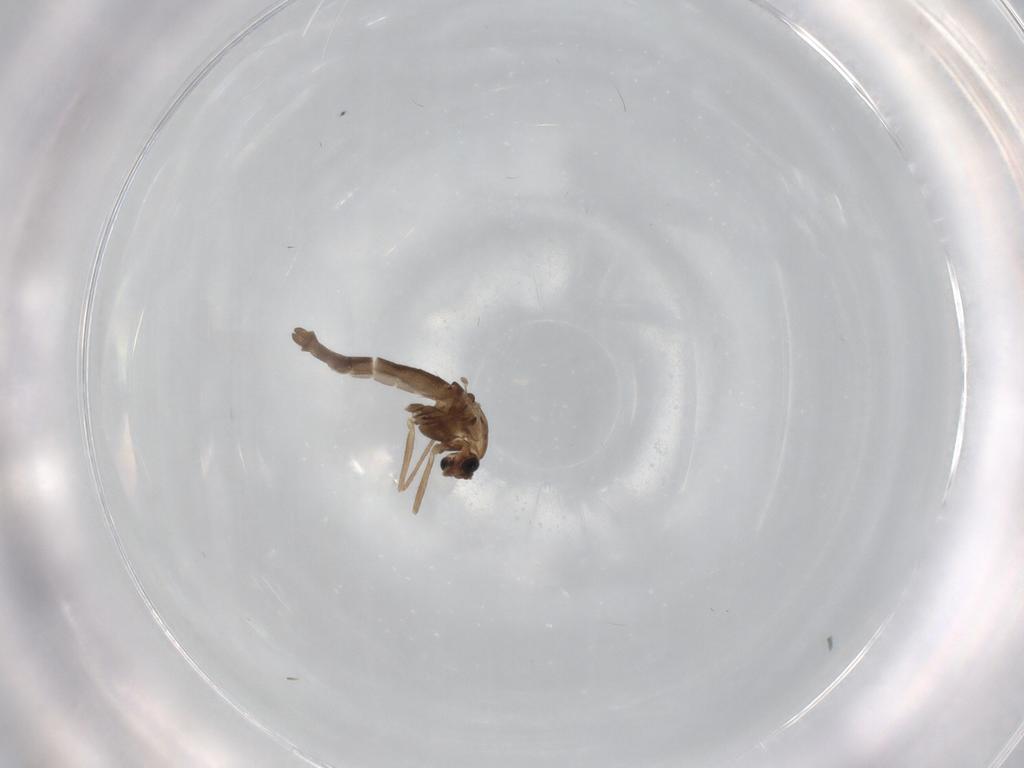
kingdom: Animalia
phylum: Arthropoda
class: Insecta
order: Diptera
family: Chironomidae
